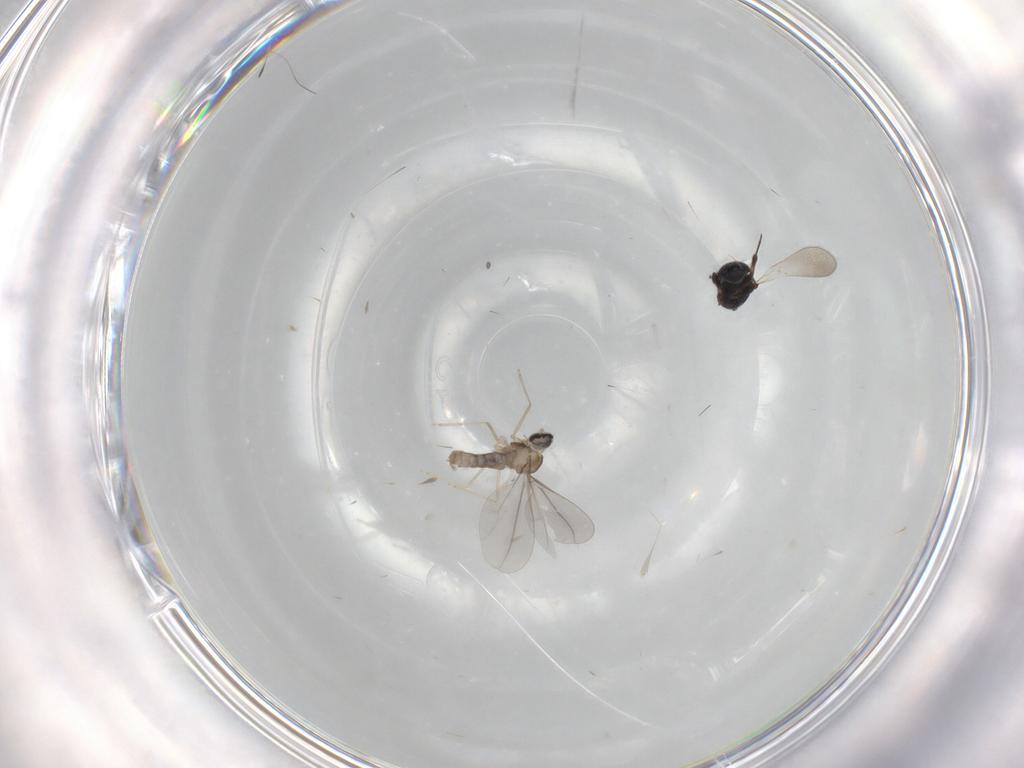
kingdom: Animalia
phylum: Arthropoda
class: Insecta
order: Hymenoptera
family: Platygastridae
